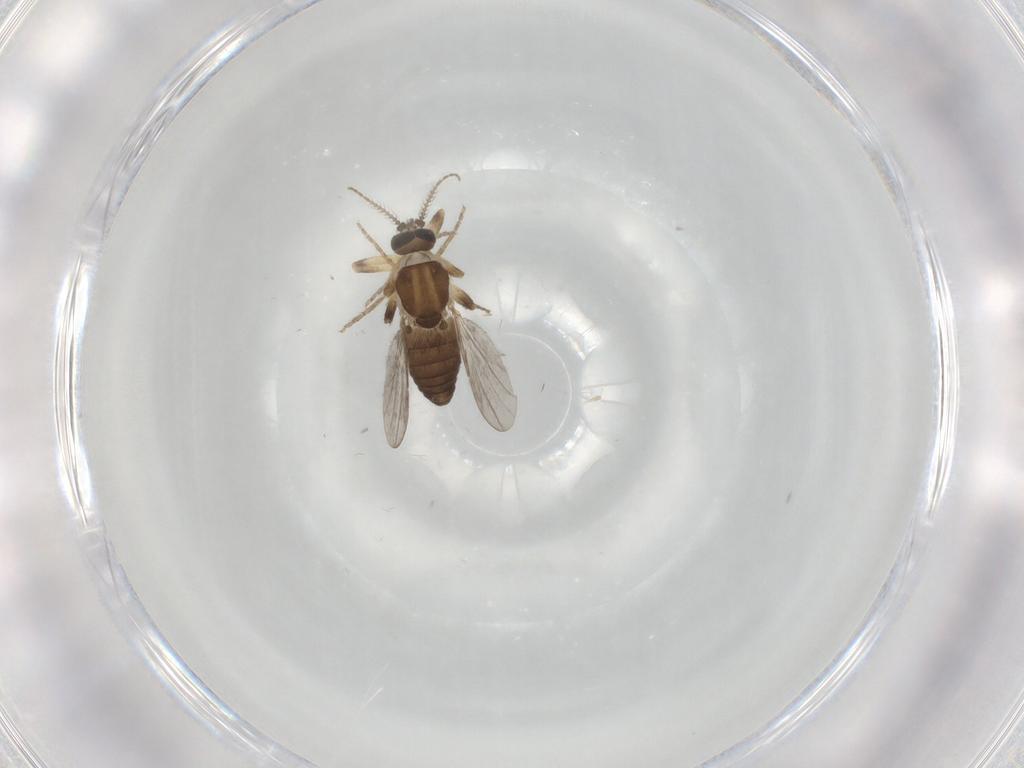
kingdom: Animalia
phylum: Arthropoda
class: Insecta
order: Diptera
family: Ceratopogonidae
